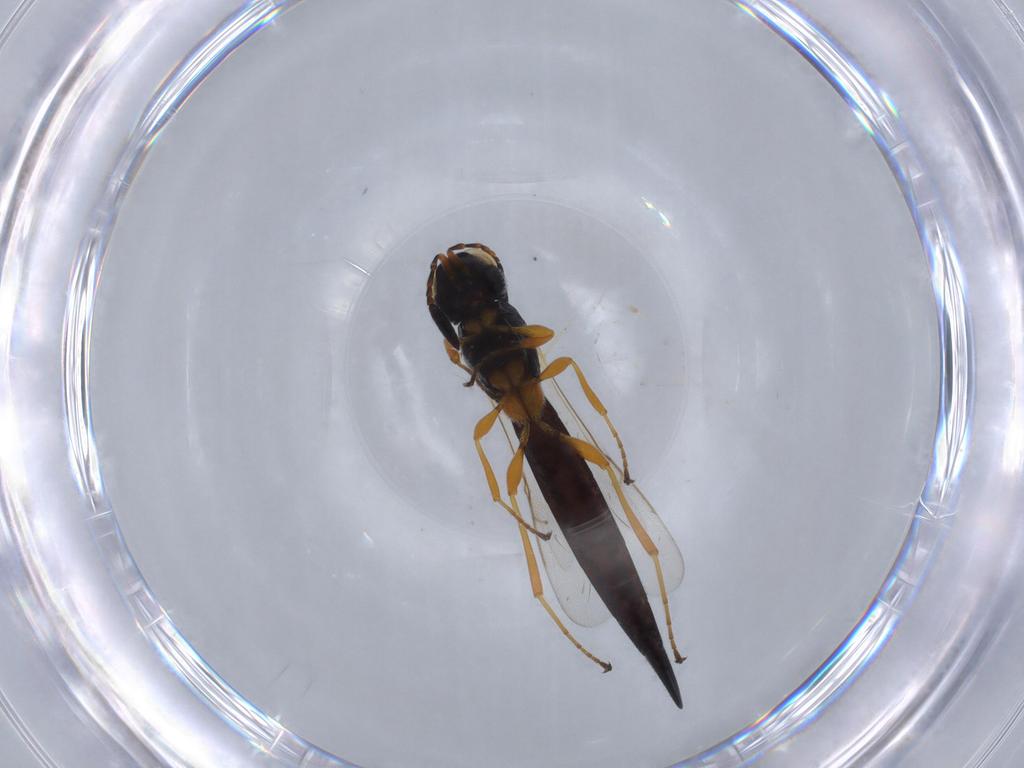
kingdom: Animalia
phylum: Arthropoda
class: Insecta
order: Hymenoptera
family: Scelionidae
